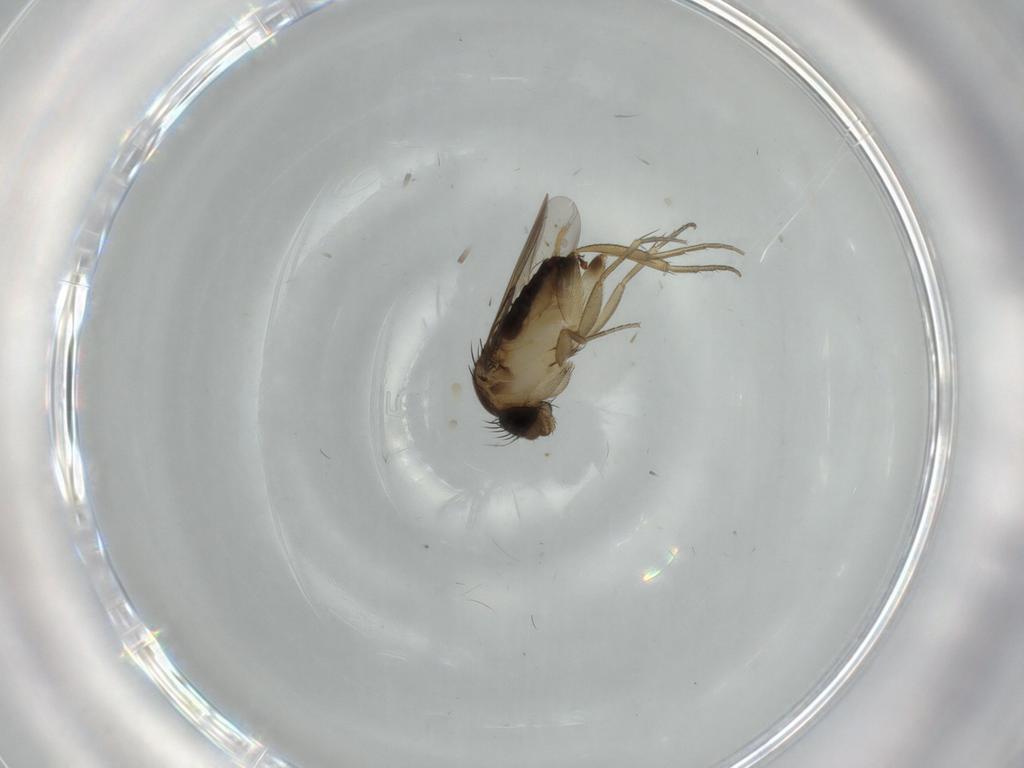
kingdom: Animalia
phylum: Arthropoda
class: Insecta
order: Diptera
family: Phoridae
